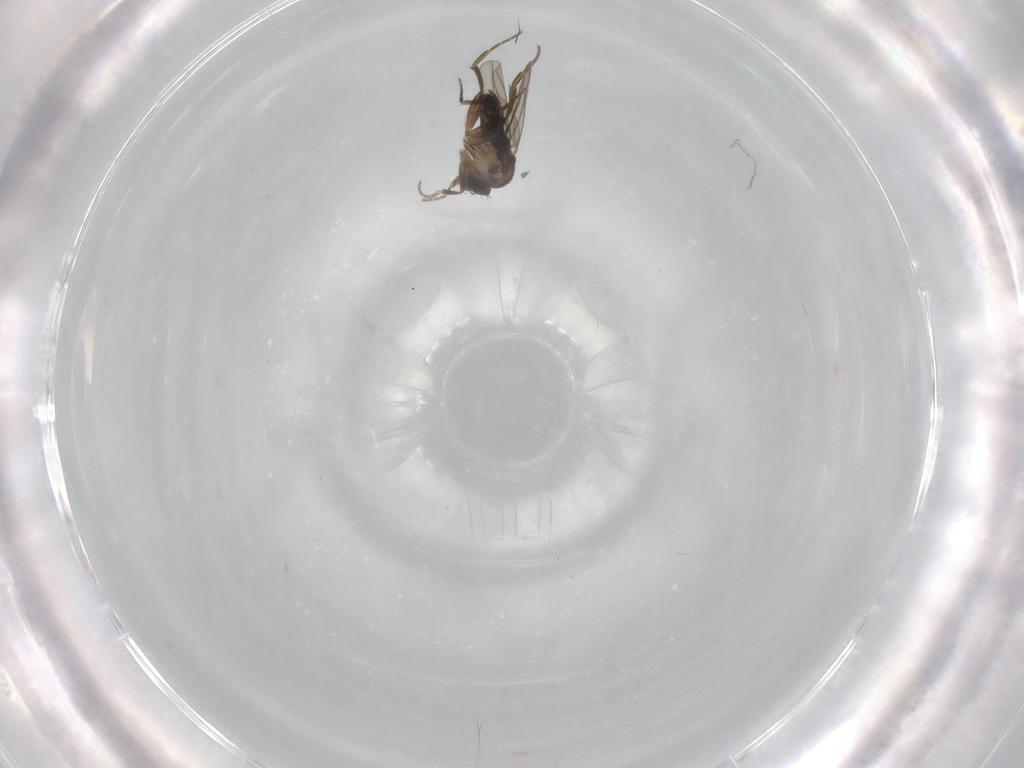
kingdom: Animalia
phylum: Arthropoda
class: Insecta
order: Diptera
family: Phoridae
